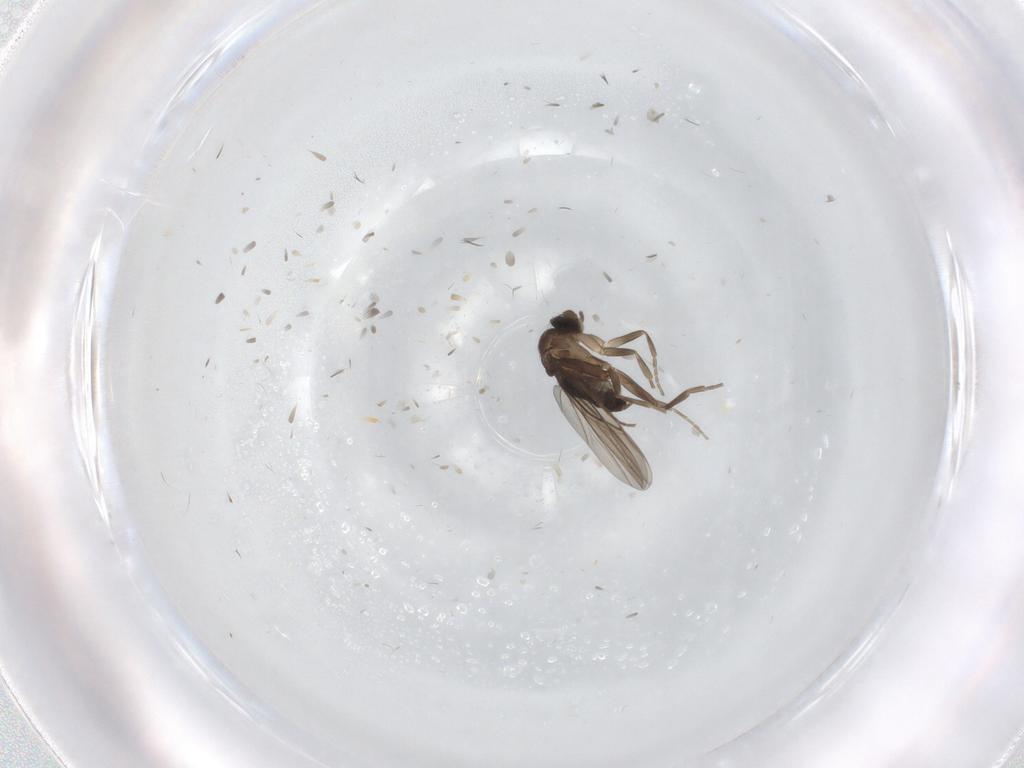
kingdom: Animalia
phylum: Arthropoda
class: Insecta
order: Diptera
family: Phoridae
